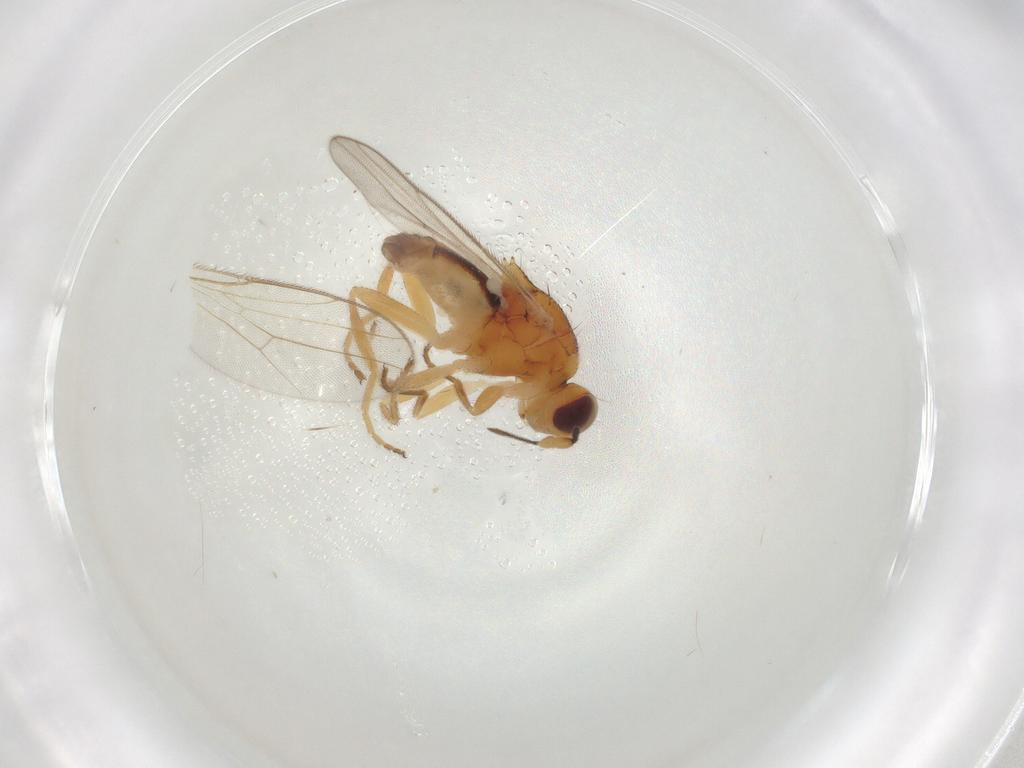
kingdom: Animalia
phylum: Arthropoda
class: Insecta
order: Diptera
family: Chloropidae
